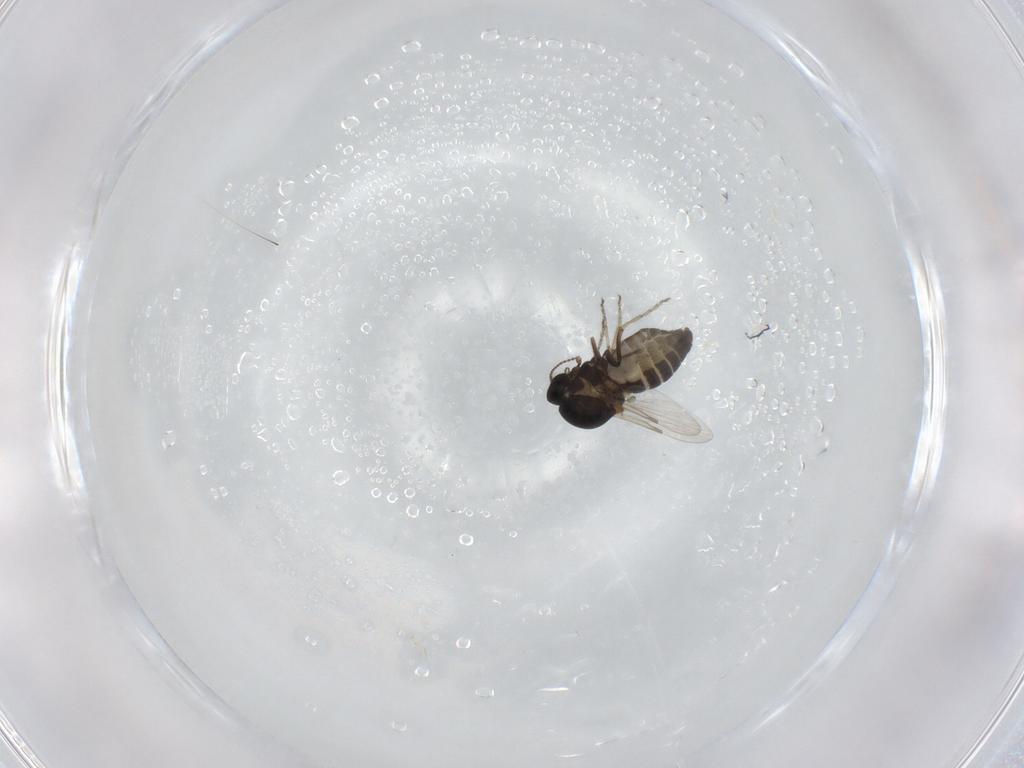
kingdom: Animalia
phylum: Arthropoda
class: Insecta
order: Diptera
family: Ceratopogonidae
